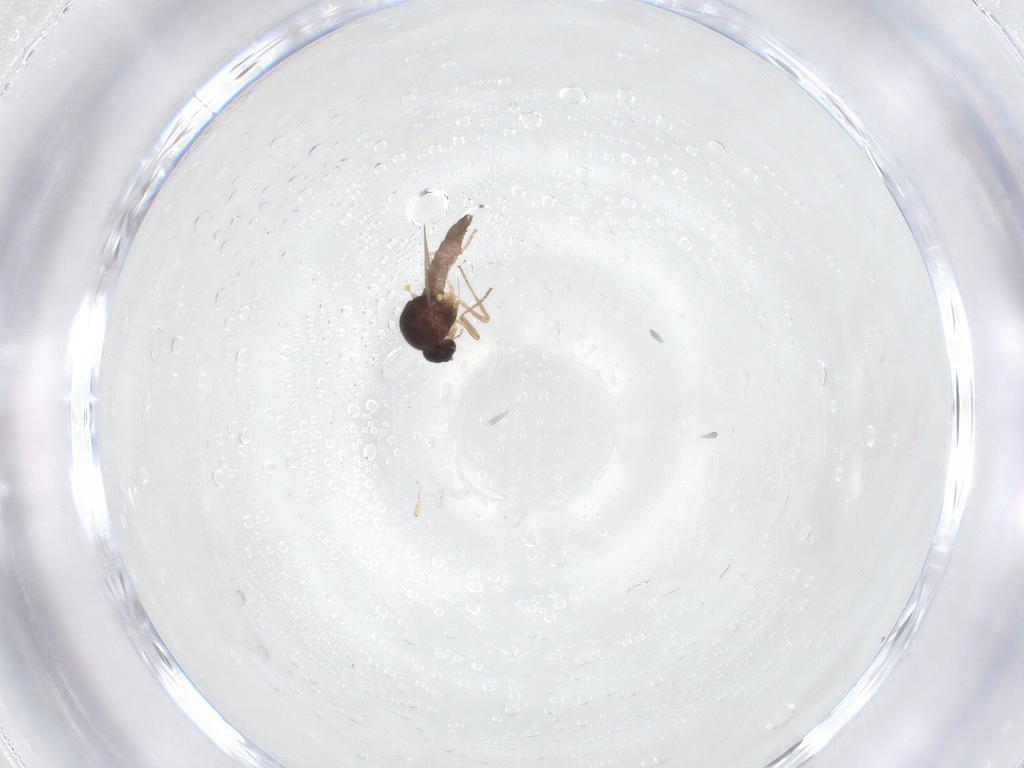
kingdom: Animalia
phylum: Arthropoda
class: Insecta
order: Diptera
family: Ceratopogonidae
